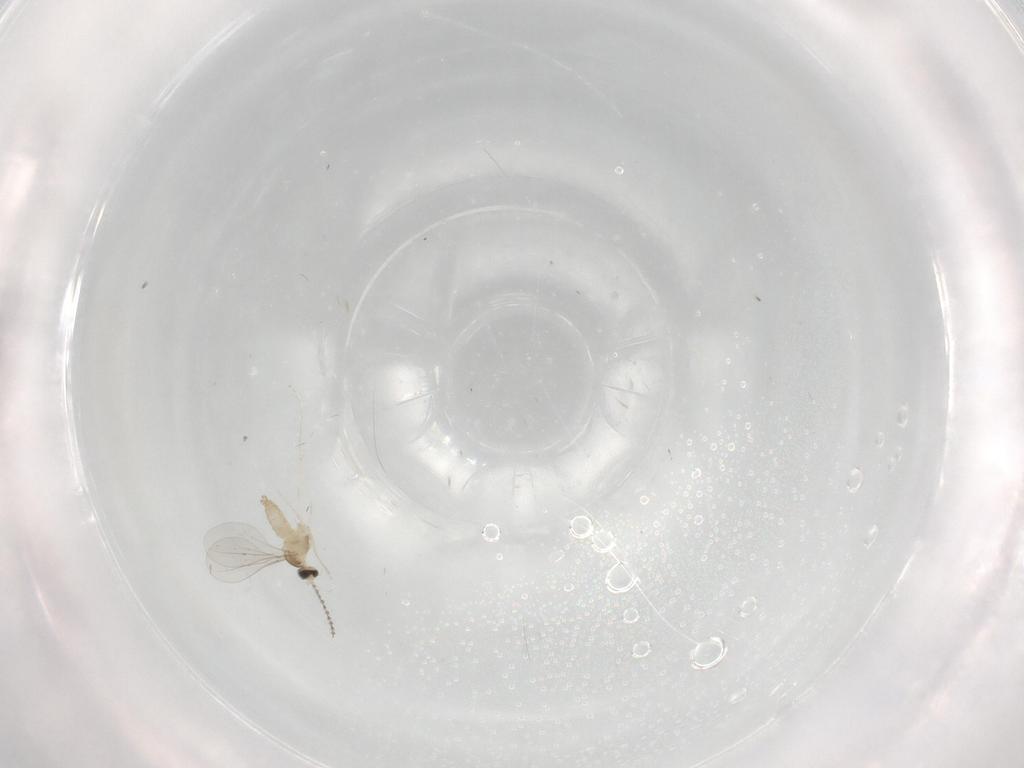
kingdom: Animalia
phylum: Arthropoda
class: Insecta
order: Diptera
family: Cecidomyiidae
